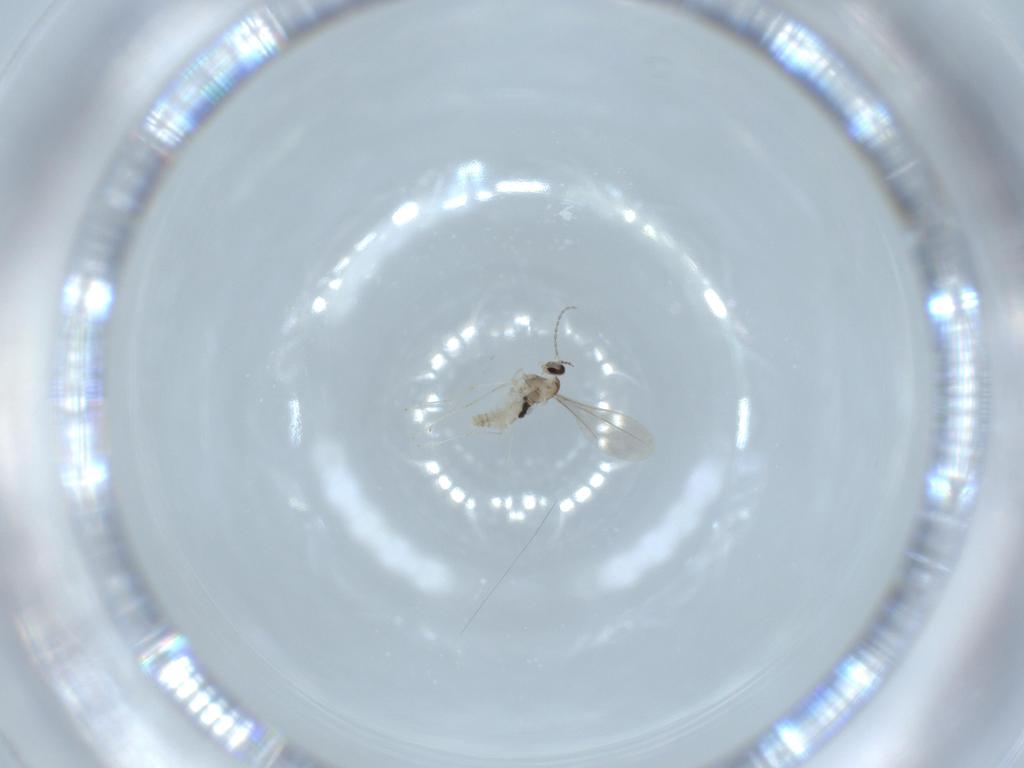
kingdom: Animalia
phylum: Arthropoda
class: Insecta
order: Diptera
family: Cecidomyiidae
